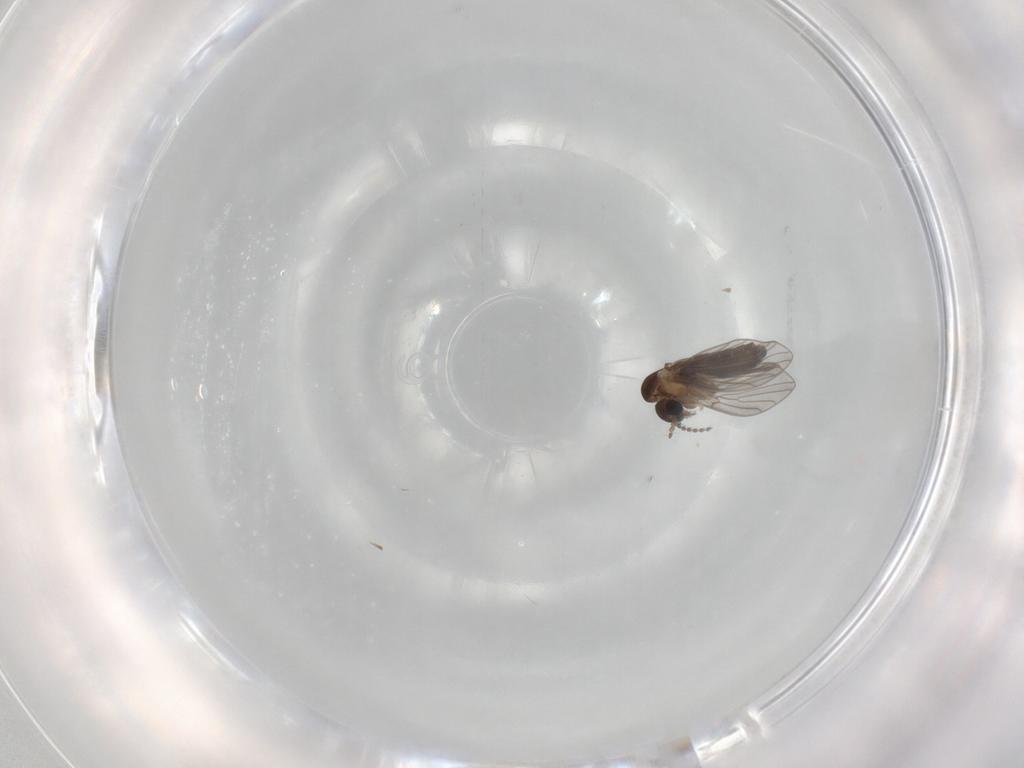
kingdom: Animalia
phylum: Arthropoda
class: Insecta
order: Diptera
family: Psychodidae
